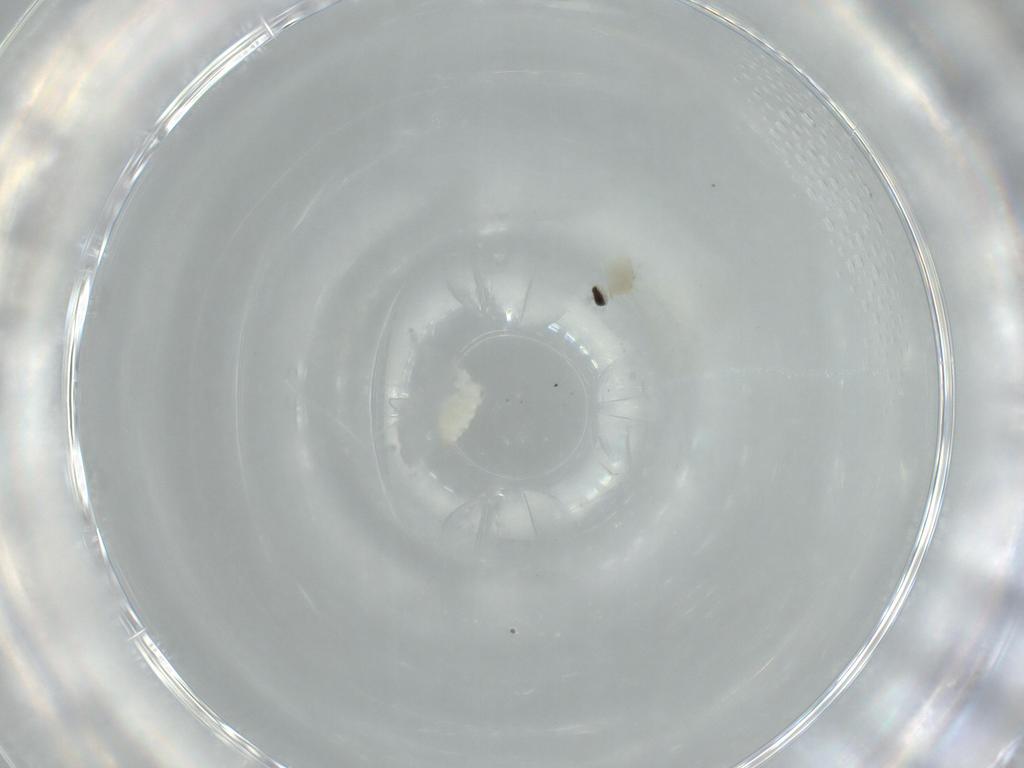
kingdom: Animalia
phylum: Arthropoda
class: Insecta
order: Diptera
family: Cecidomyiidae
